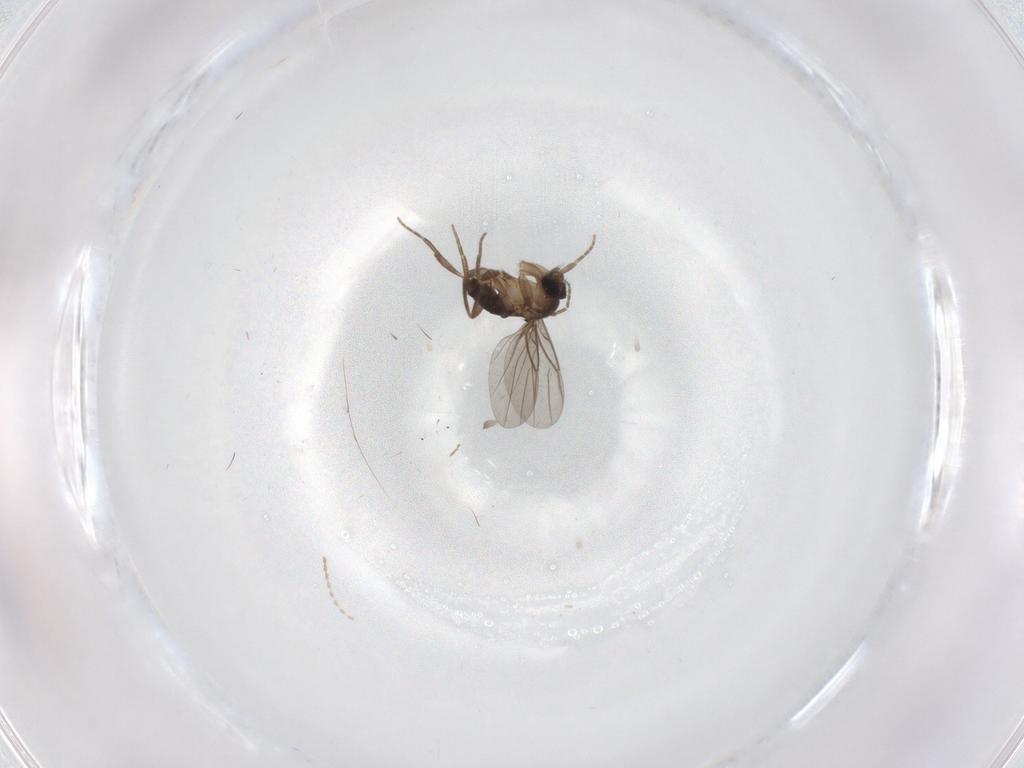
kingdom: Animalia
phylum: Arthropoda
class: Insecta
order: Diptera
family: Cecidomyiidae
